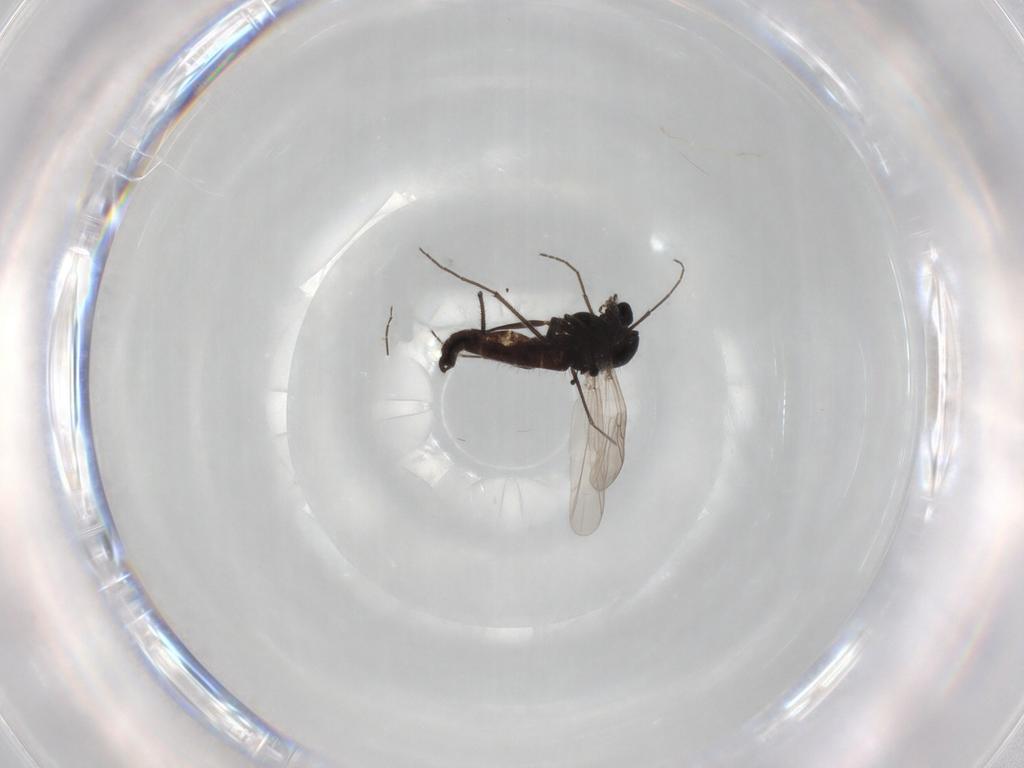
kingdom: Animalia
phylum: Arthropoda
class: Insecta
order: Diptera
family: Chironomidae
